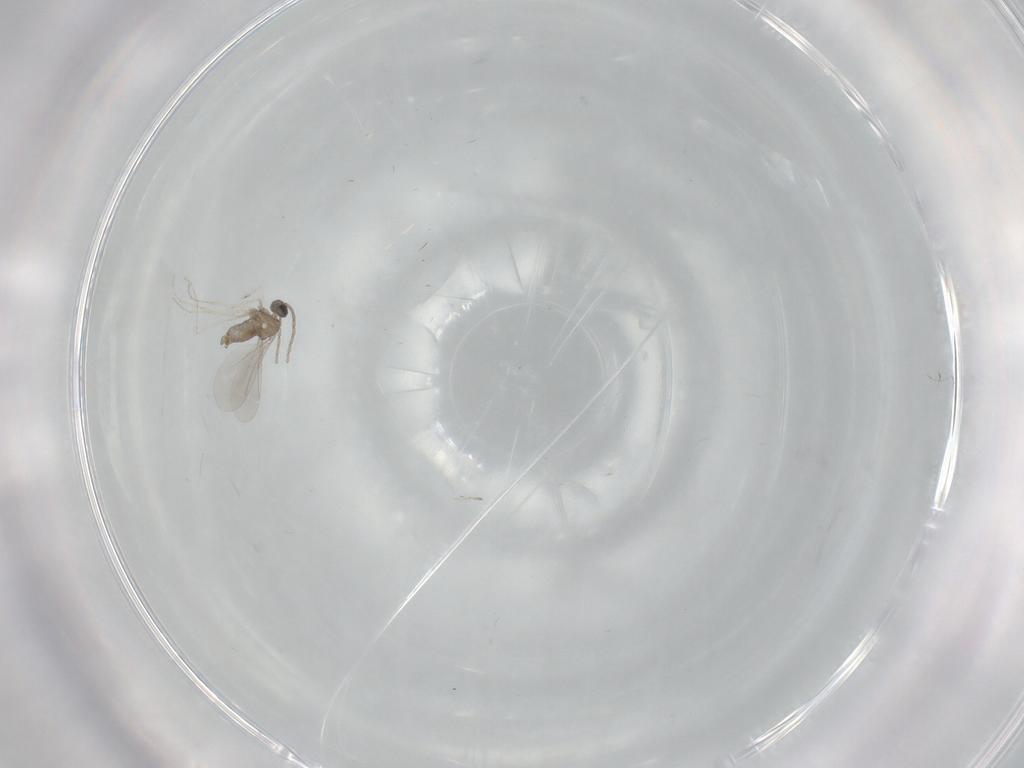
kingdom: Animalia
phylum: Arthropoda
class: Insecta
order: Diptera
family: Cecidomyiidae
